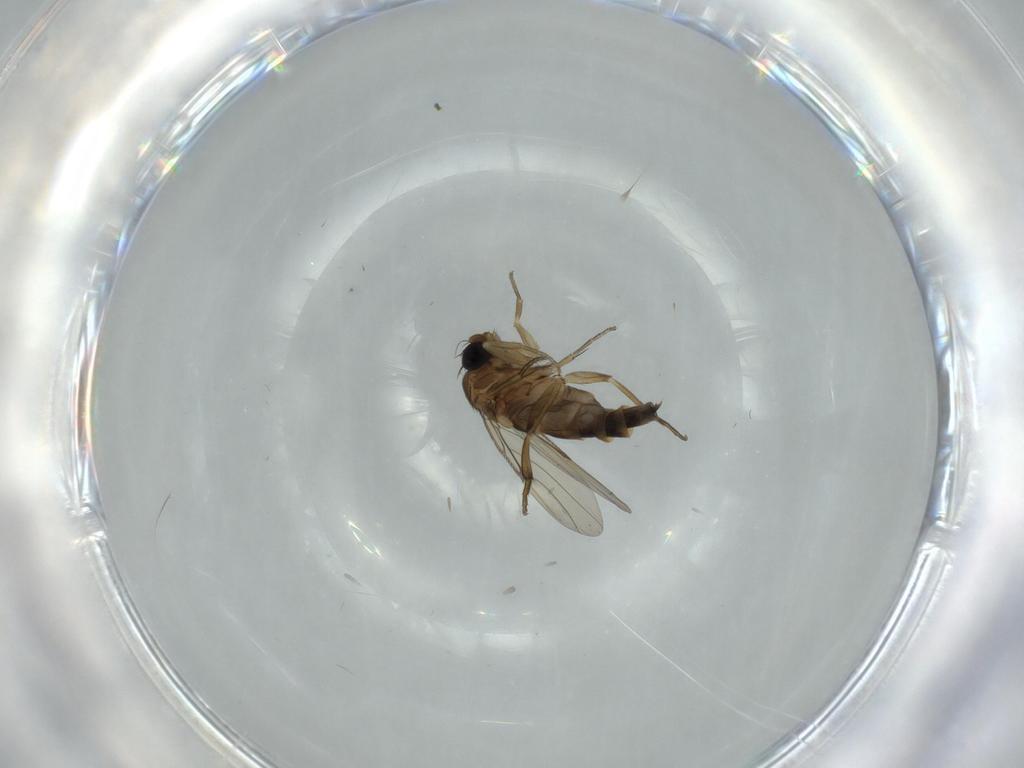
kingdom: Animalia
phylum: Arthropoda
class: Insecta
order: Diptera
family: Phoridae
